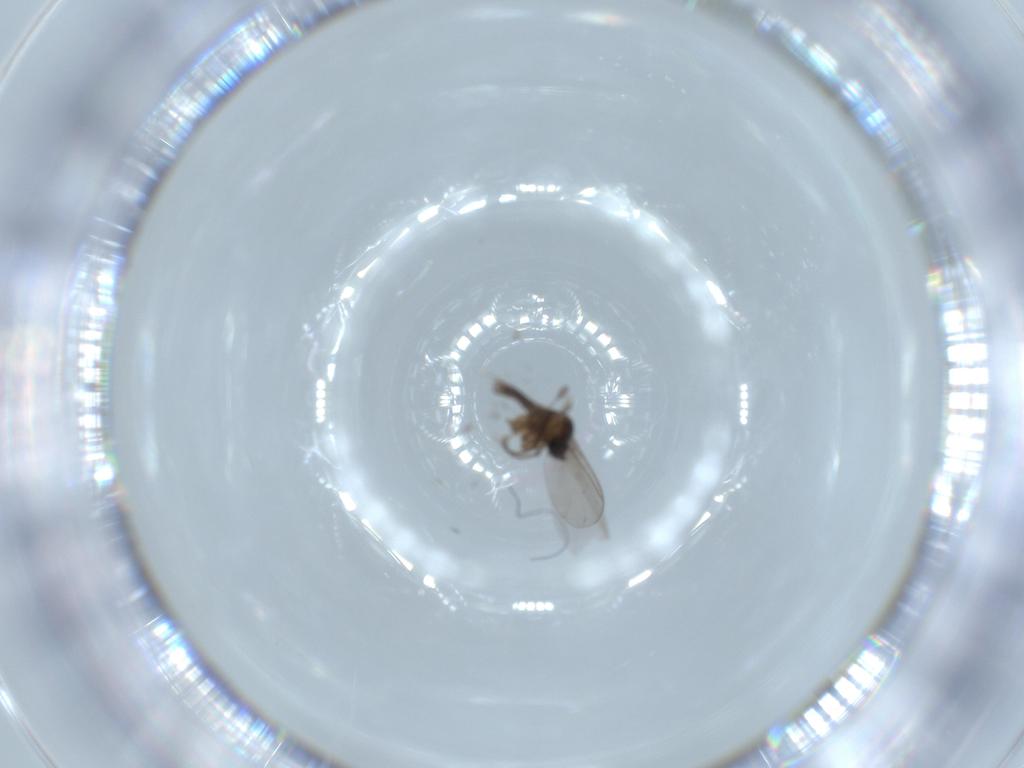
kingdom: Animalia
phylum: Arthropoda
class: Insecta
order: Diptera
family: Sciaridae
